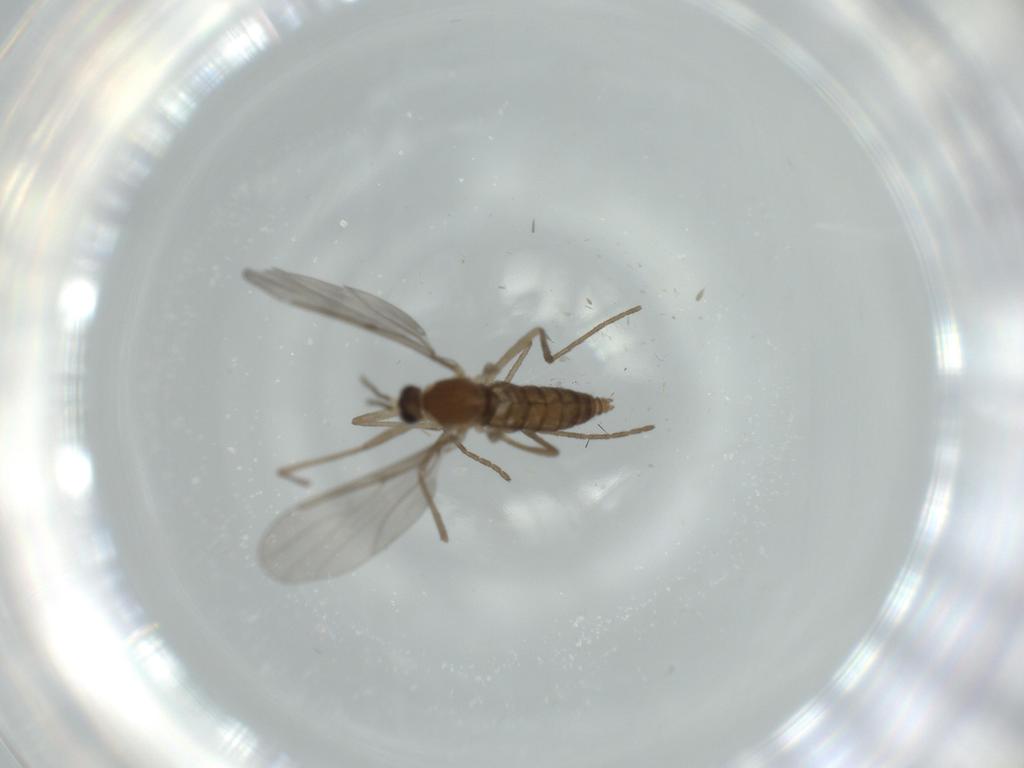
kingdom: Animalia
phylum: Arthropoda
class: Insecta
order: Diptera
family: Cecidomyiidae
